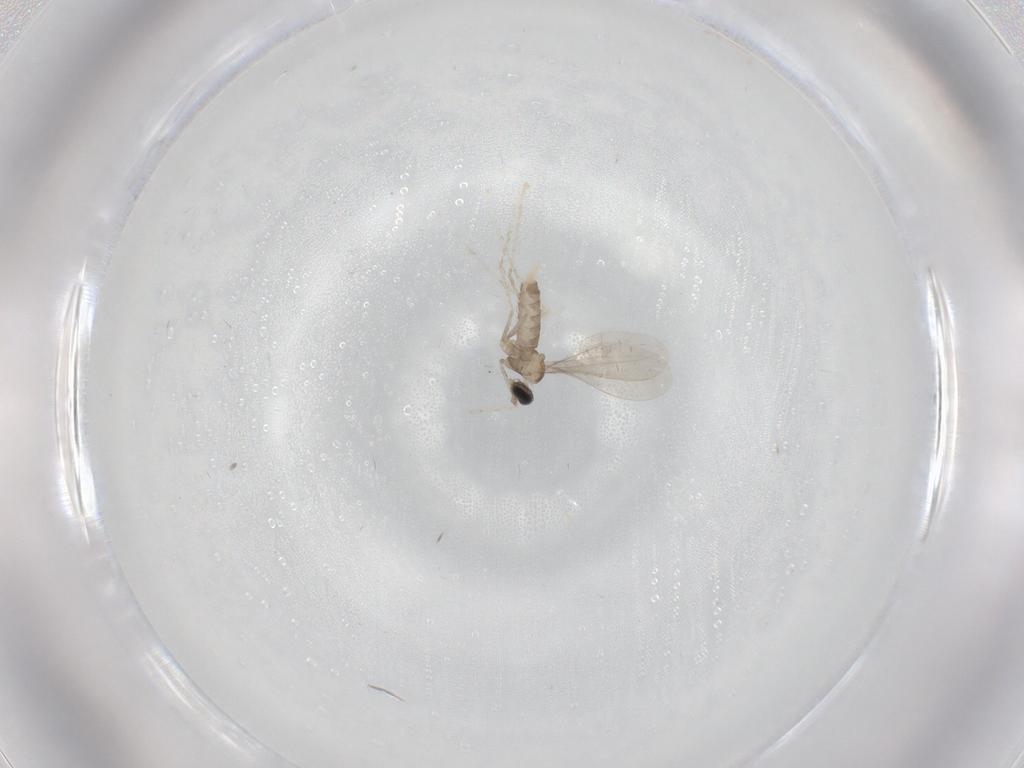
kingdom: Animalia
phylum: Arthropoda
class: Insecta
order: Diptera
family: Cecidomyiidae
